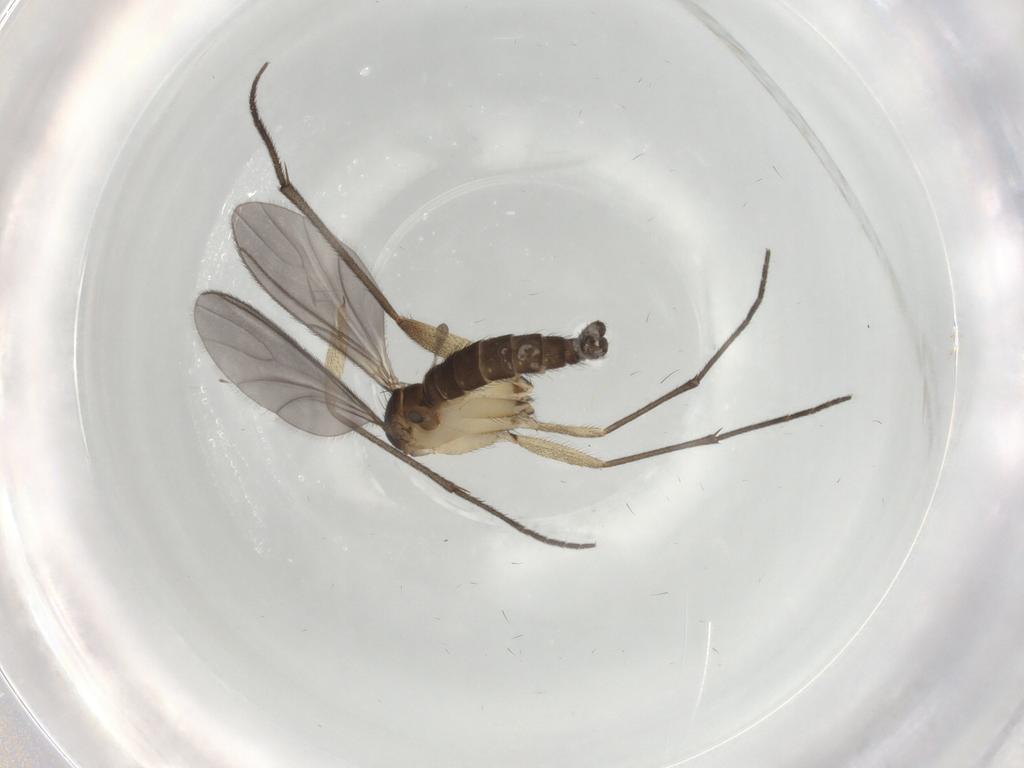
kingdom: Animalia
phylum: Arthropoda
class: Insecta
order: Diptera
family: Sciaridae
